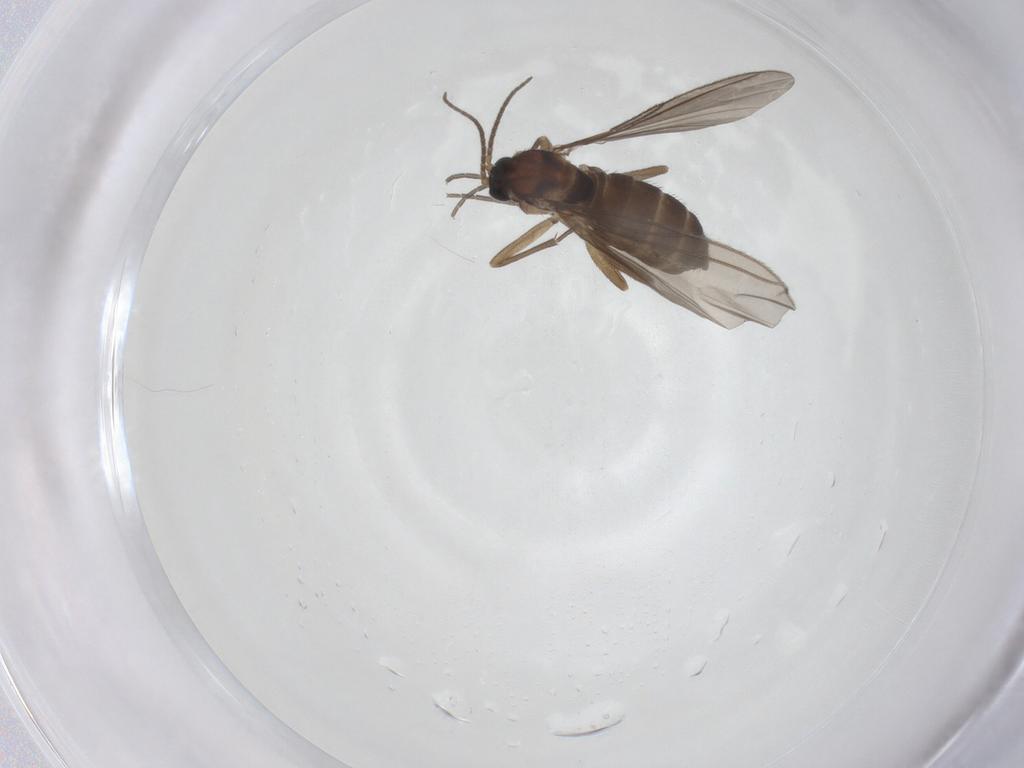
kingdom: Animalia
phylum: Arthropoda
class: Insecta
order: Diptera
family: Sciaridae
